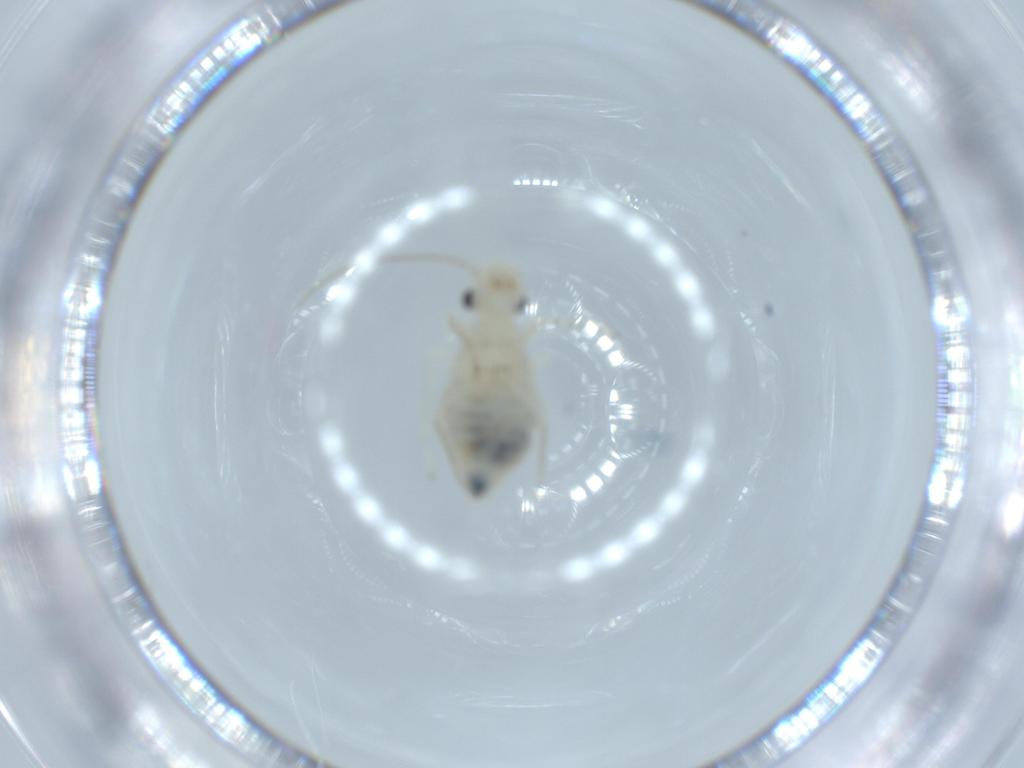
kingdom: Animalia
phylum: Arthropoda
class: Insecta
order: Psocodea
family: Caeciliusidae
